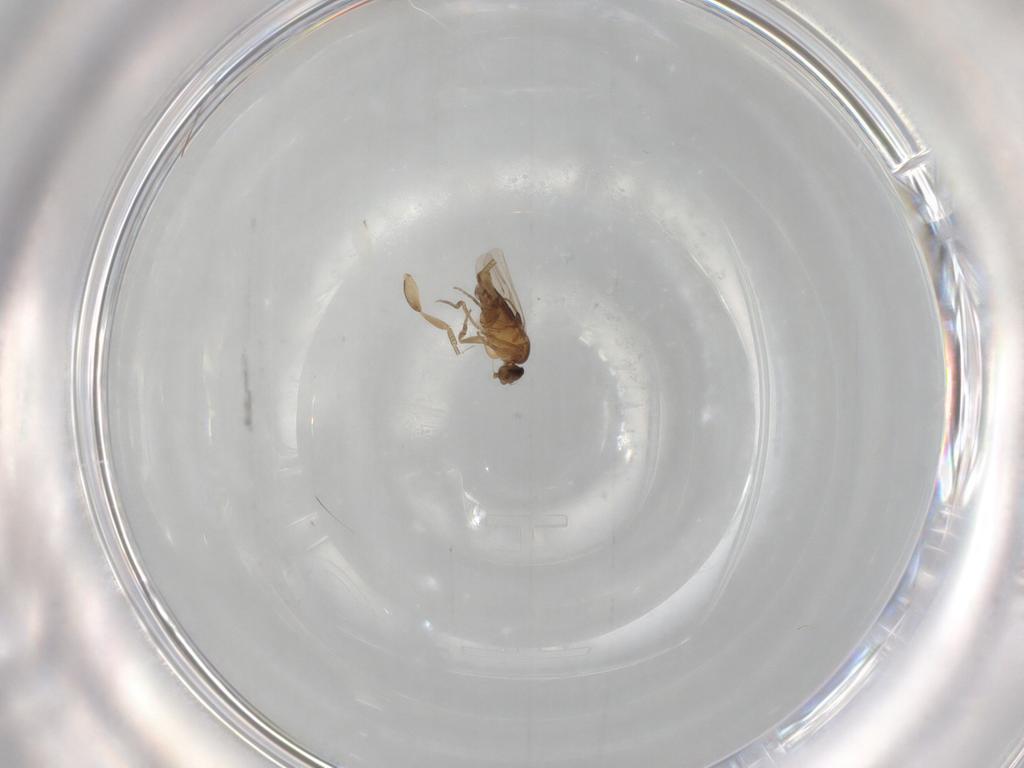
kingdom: Animalia
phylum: Arthropoda
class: Insecta
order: Diptera
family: Phoridae
